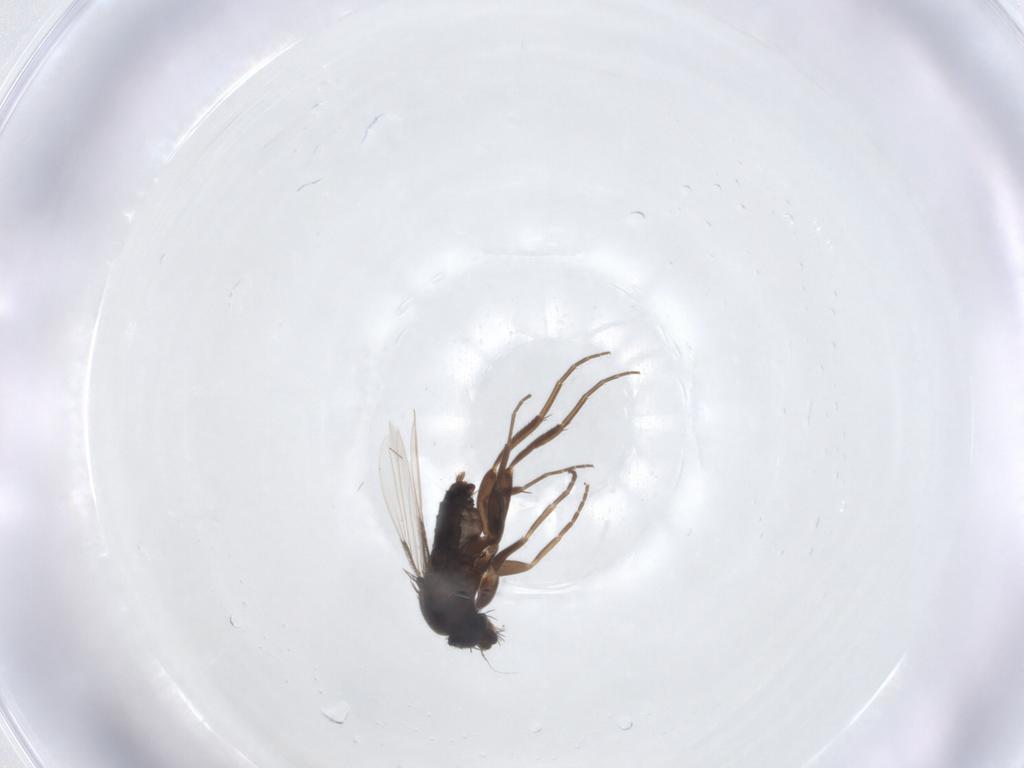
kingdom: Animalia
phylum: Arthropoda
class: Insecta
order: Diptera
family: Phoridae
